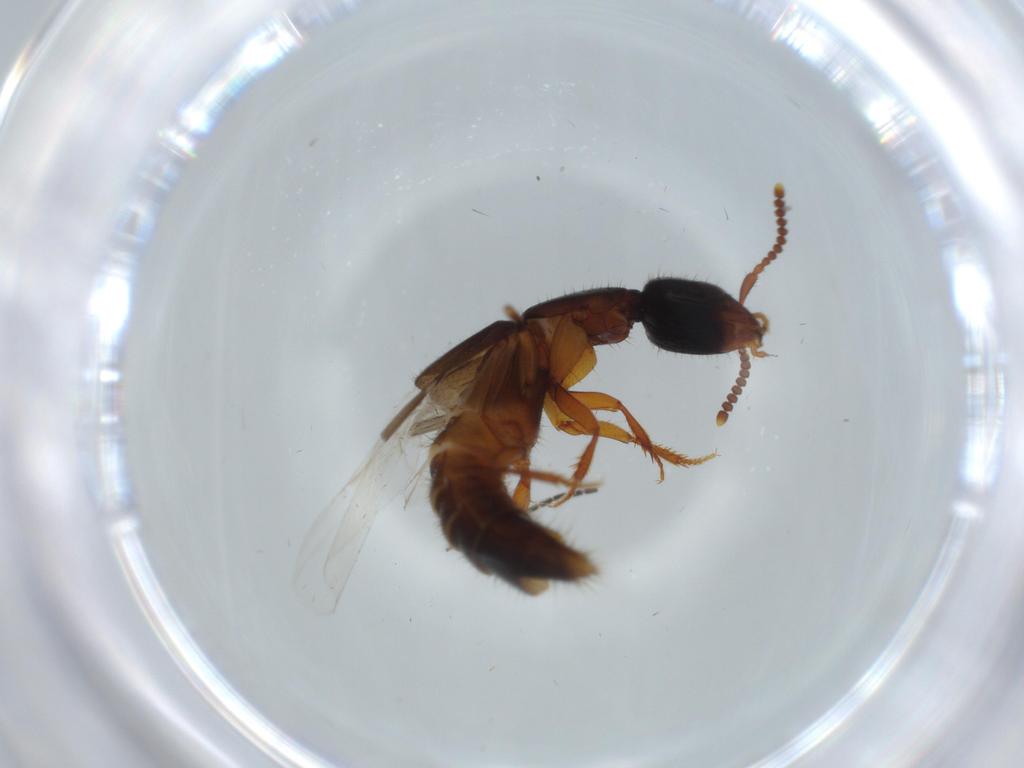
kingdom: Animalia
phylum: Arthropoda
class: Insecta
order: Coleoptera
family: Staphylinidae
